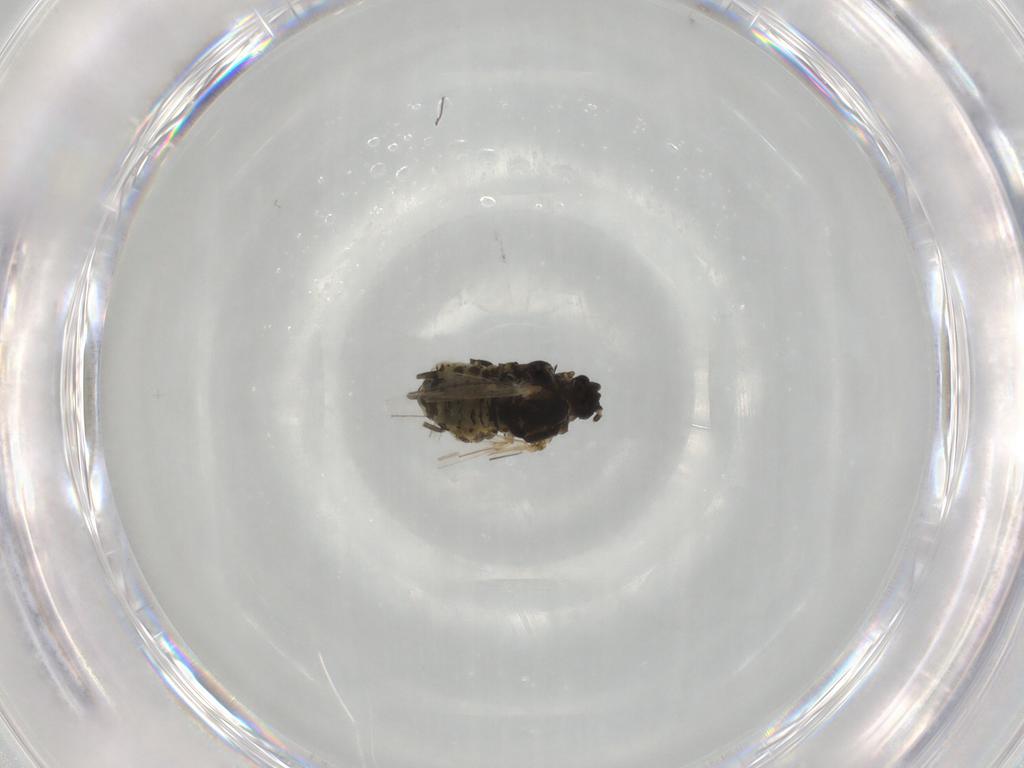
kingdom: Animalia
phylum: Arthropoda
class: Insecta
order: Hemiptera
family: Aphididae
